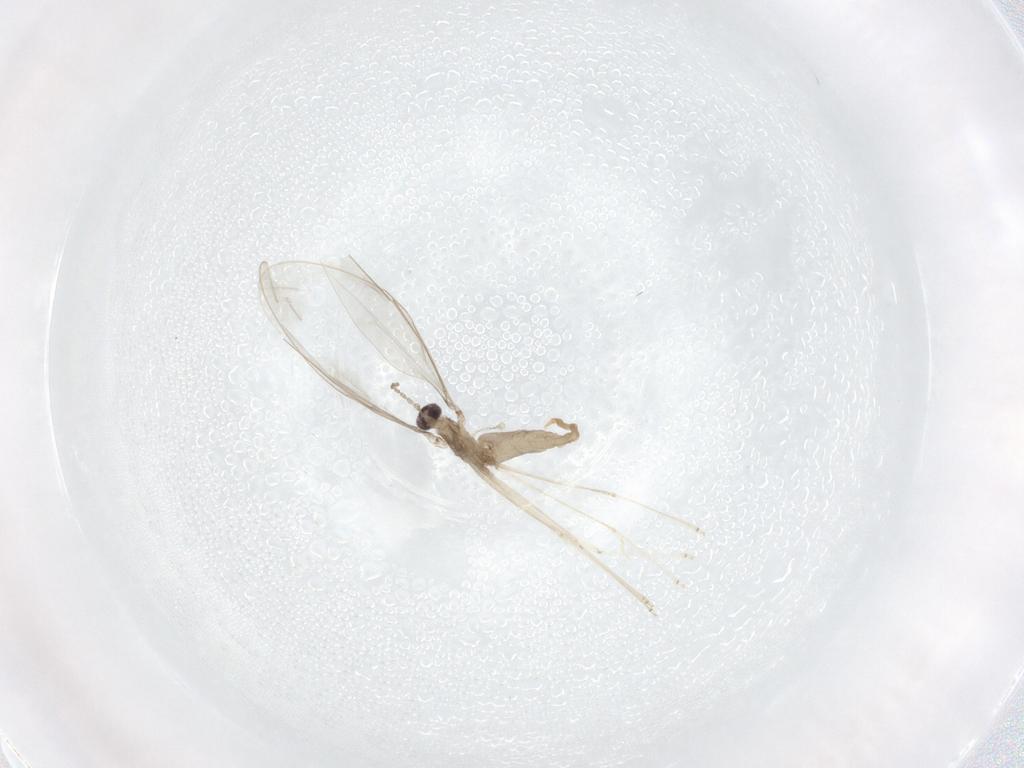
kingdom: Animalia
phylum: Arthropoda
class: Insecta
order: Diptera
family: Cecidomyiidae
